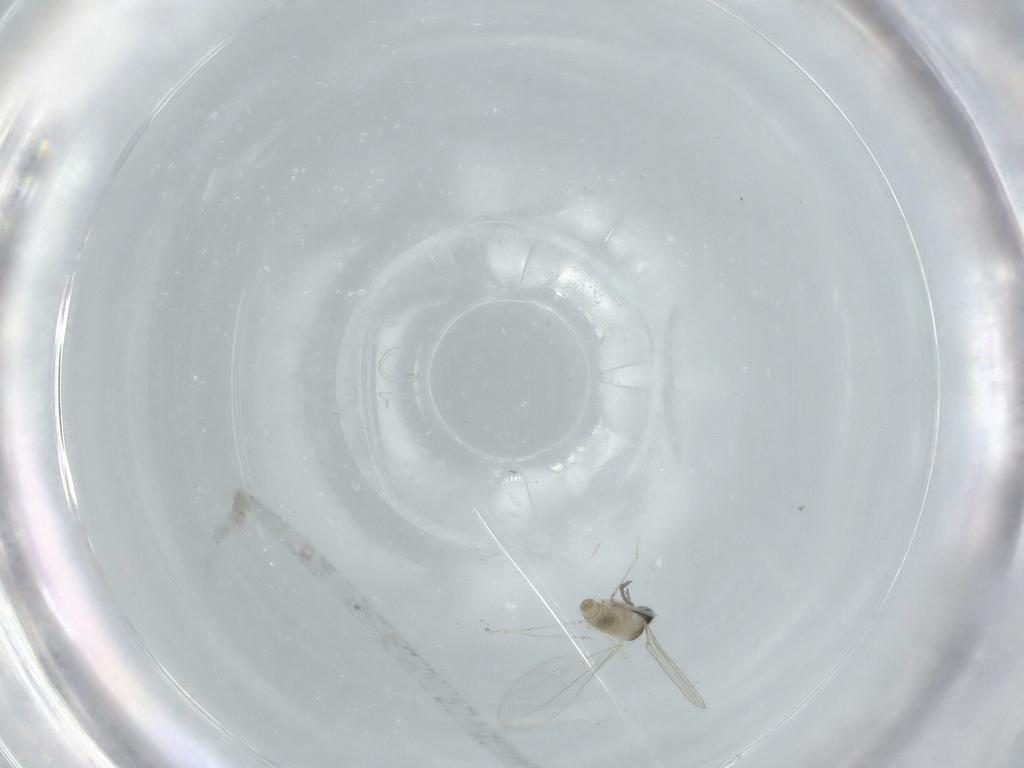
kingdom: Animalia
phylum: Arthropoda
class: Insecta
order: Diptera
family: Cecidomyiidae
